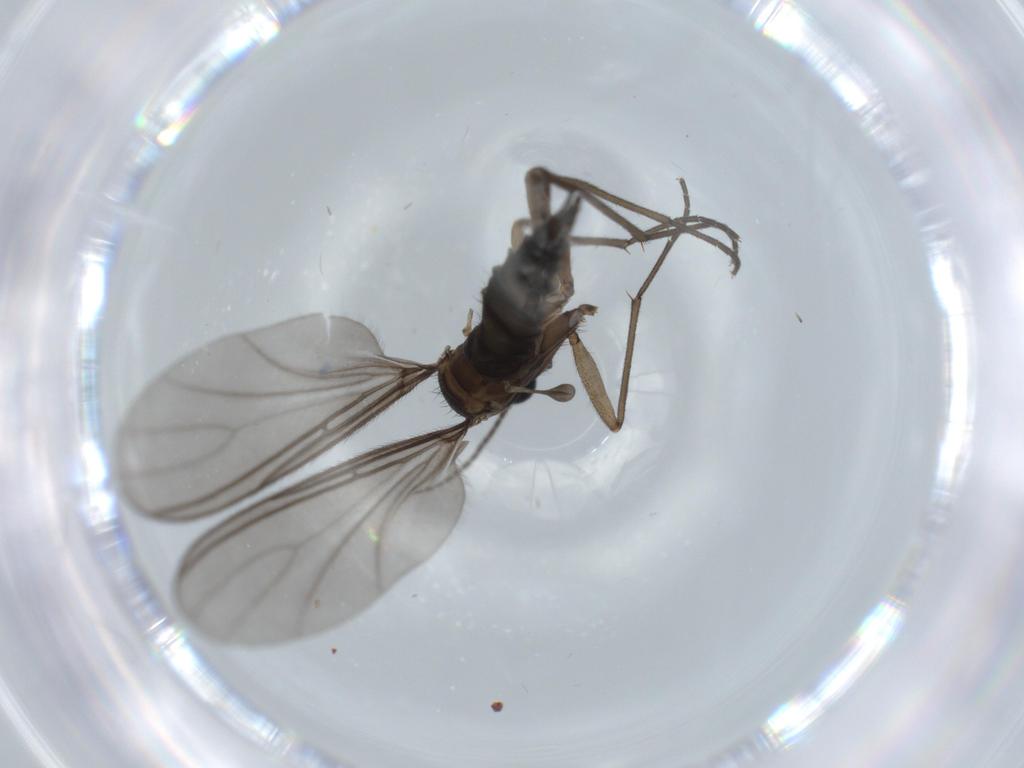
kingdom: Animalia
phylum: Arthropoda
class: Insecta
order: Diptera
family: Sciaridae
